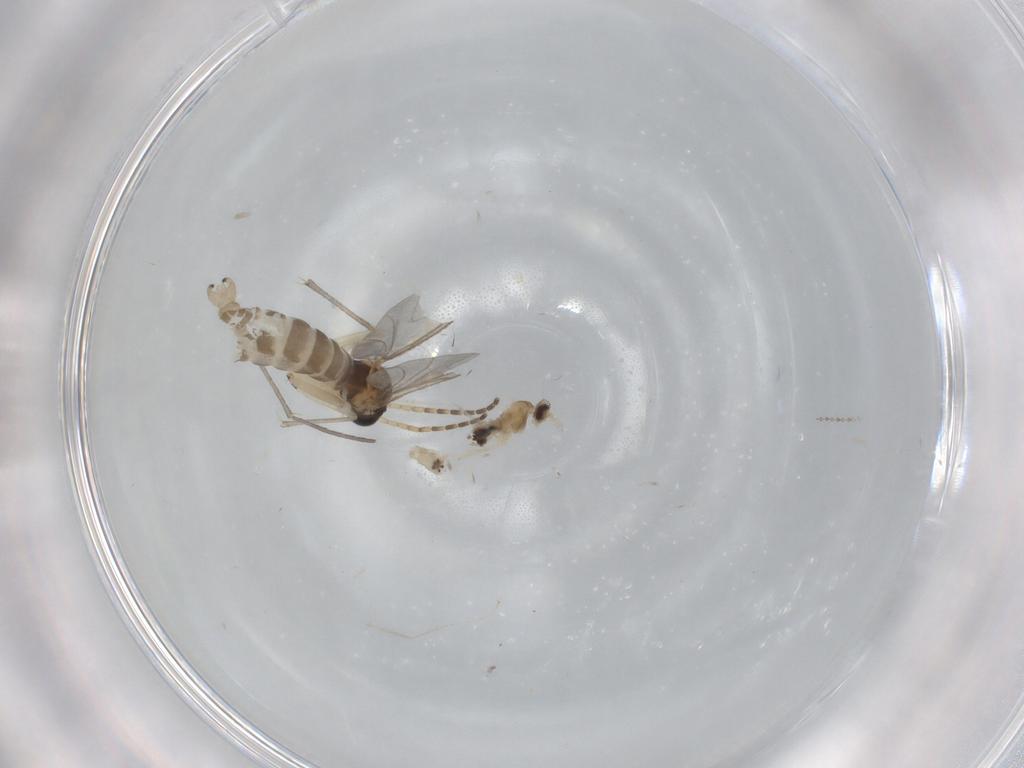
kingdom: Animalia
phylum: Arthropoda
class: Insecta
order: Diptera
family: Sciaridae
